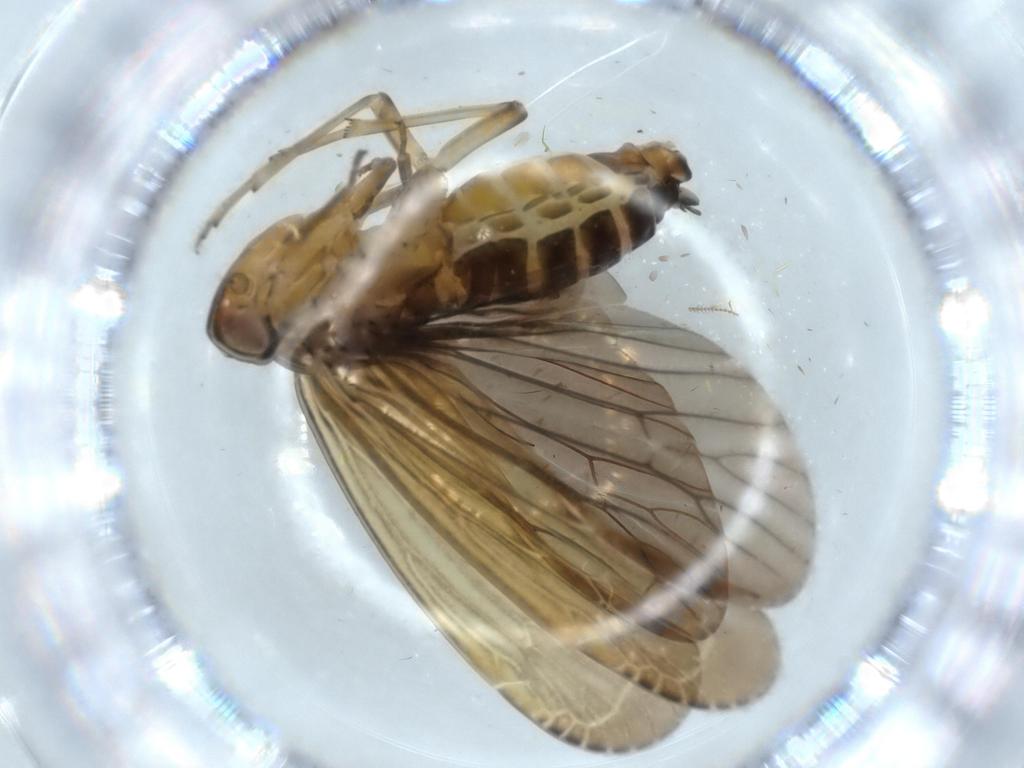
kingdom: Animalia
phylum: Arthropoda
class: Insecta
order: Hemiptera
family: Achilidae
